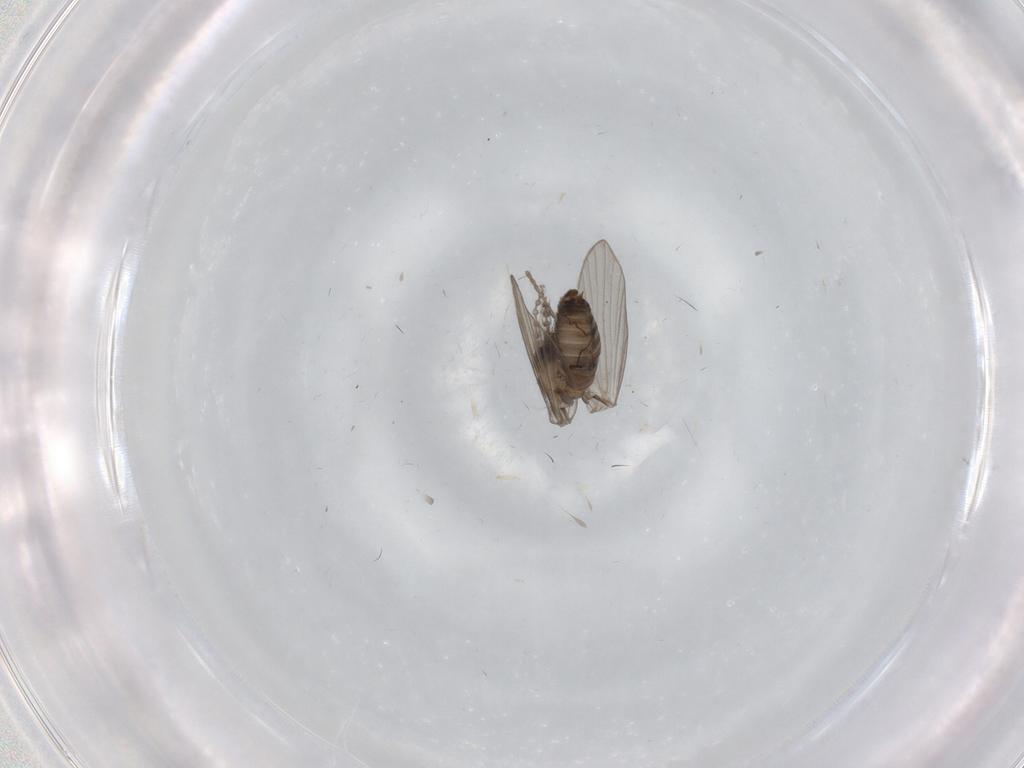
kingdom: Animalia
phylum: Arthropoda
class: Insecta
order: Diptera
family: Psychodidae
